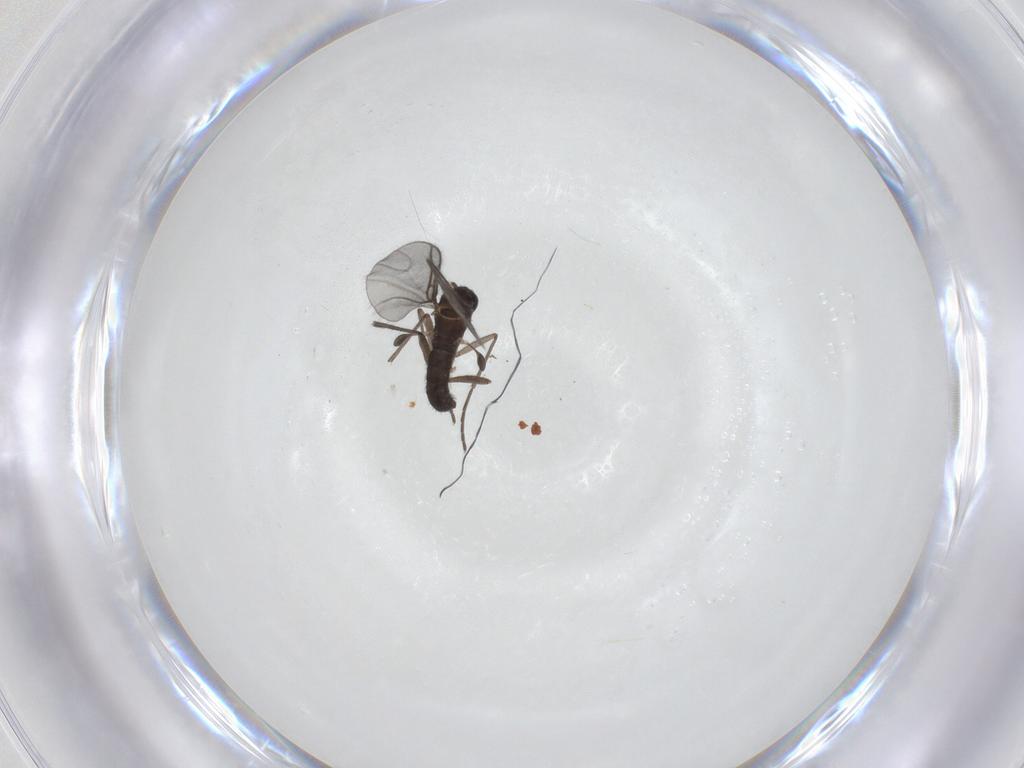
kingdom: Animalia
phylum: Arthropoda
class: Insecta
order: Diptera
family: Phoridae
